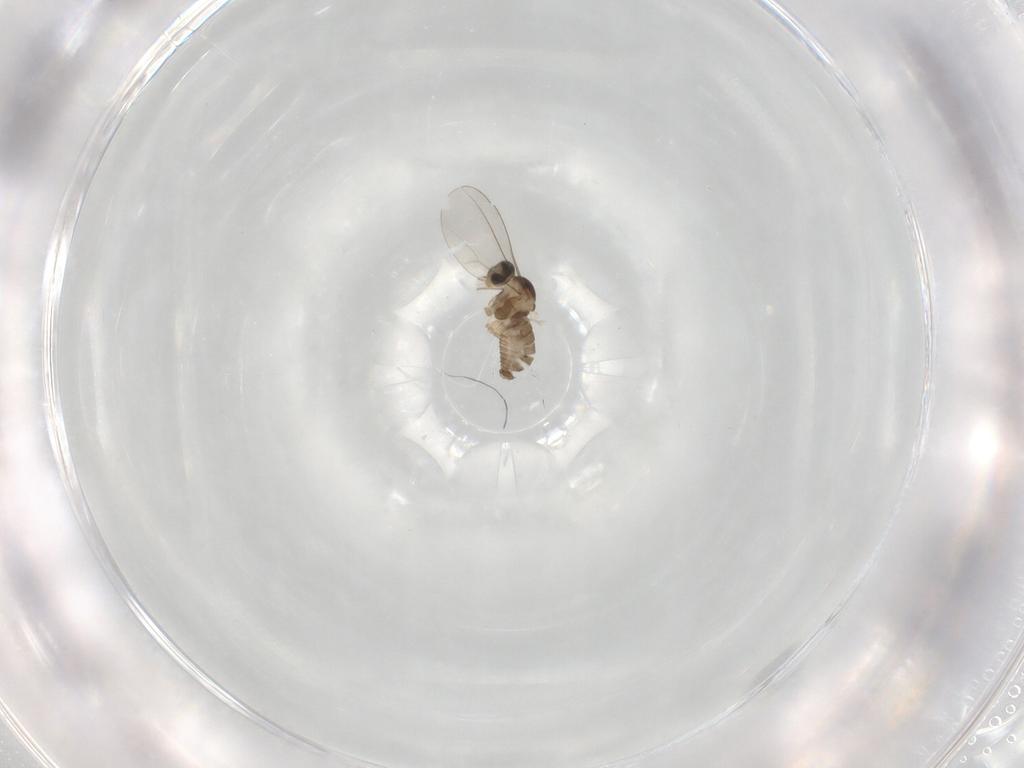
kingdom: Animalia
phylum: Arthropoda
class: Insecta
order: Diptera
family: Cecidomyiidae
